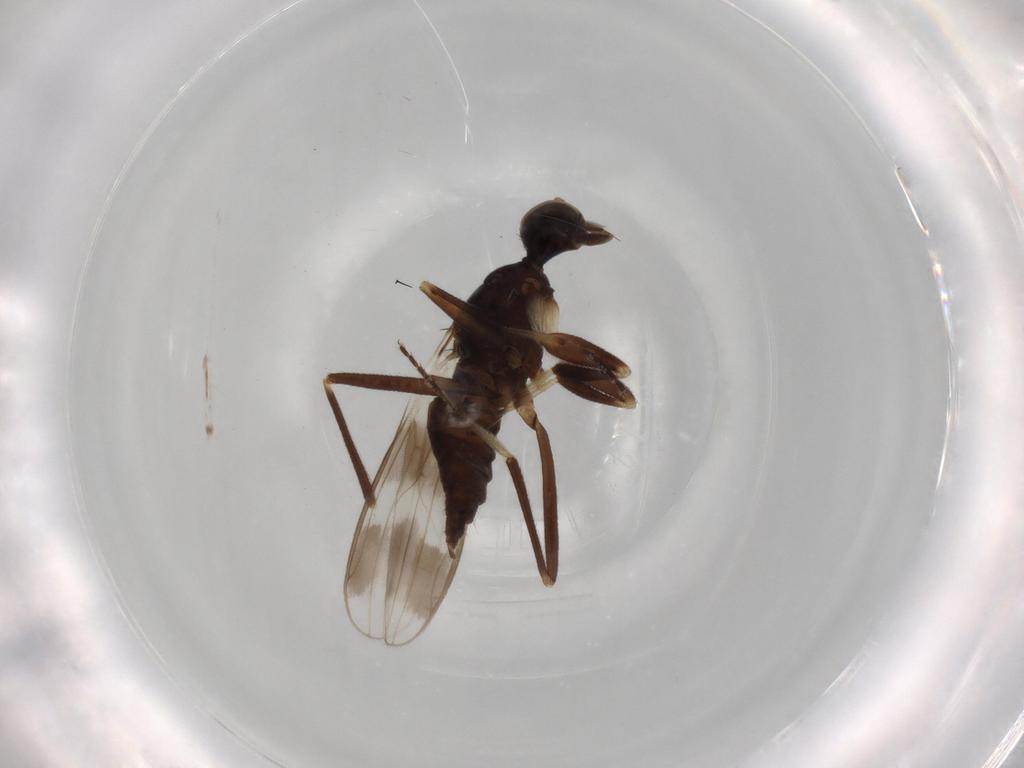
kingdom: Animalia
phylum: Arthropoda
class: Insecta
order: Diptera
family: Hybotidae
